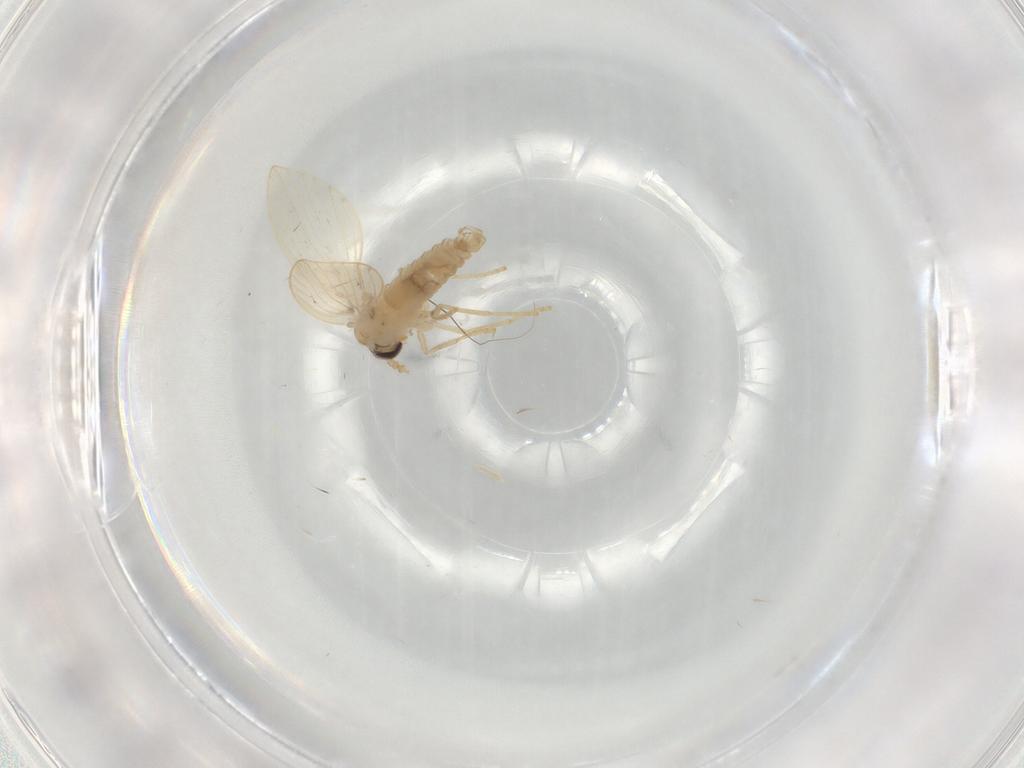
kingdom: Animalia
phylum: Arthropoda
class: Insecta
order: Diptera
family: Psychodidae
